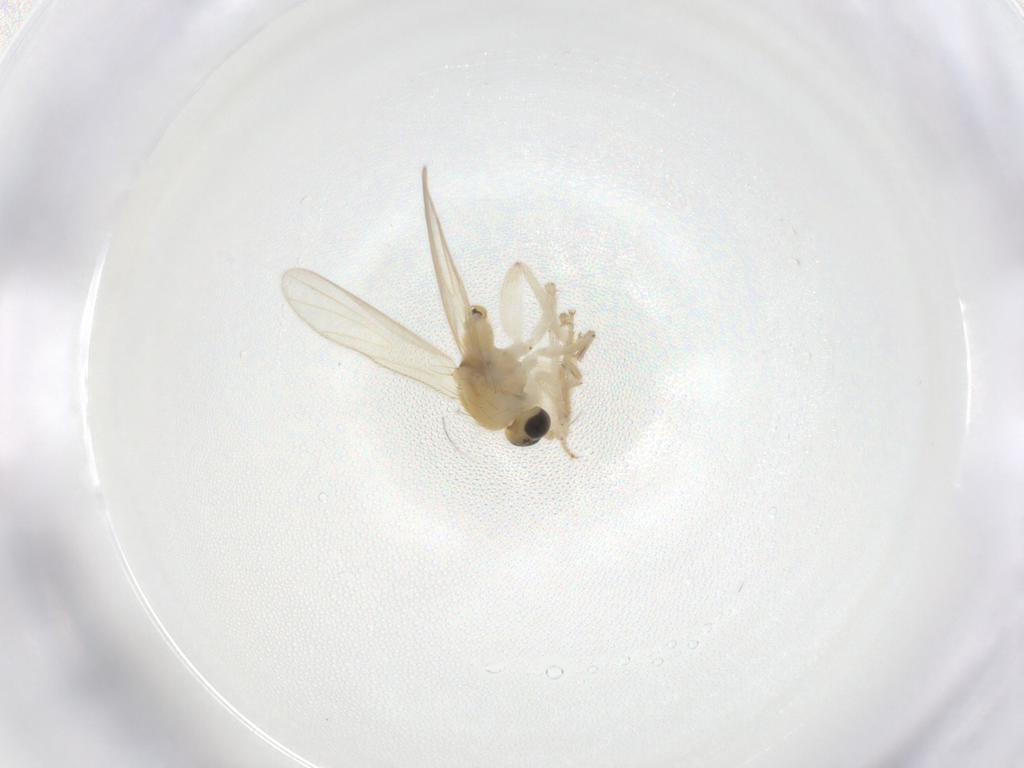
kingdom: Animalia
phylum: Arthropoda
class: Insecta
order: Diptera
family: Hybotidae
